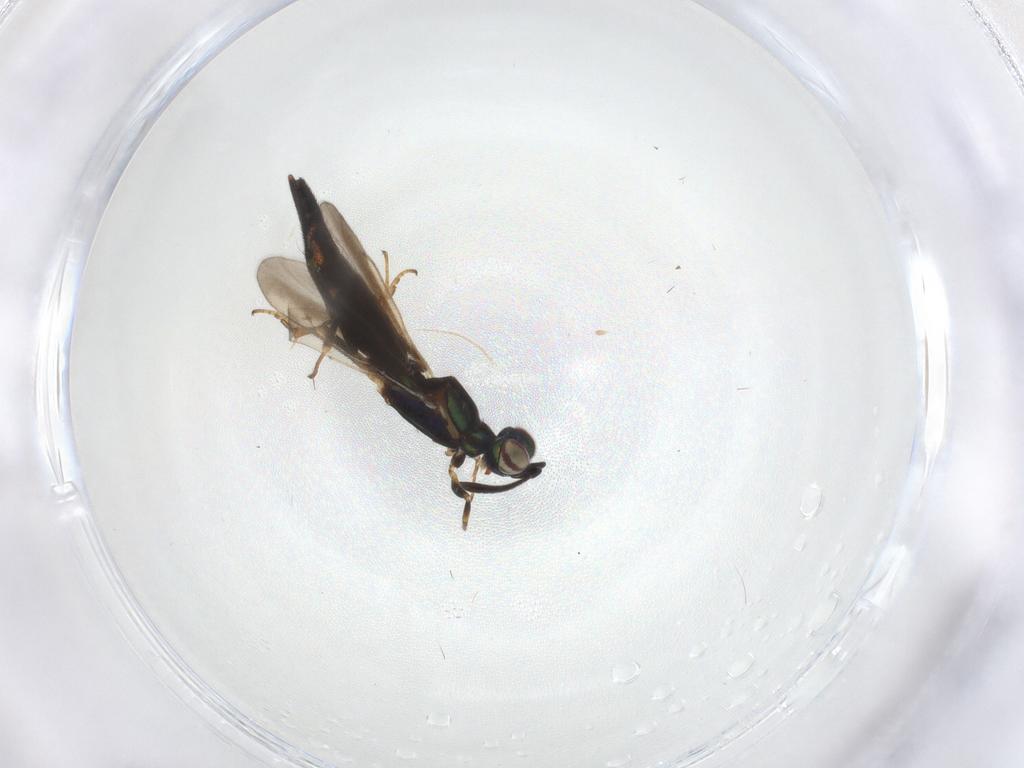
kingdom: Animalia
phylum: Arthropoda
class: Insecta
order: Hymenoptera
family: Eupelmidae
